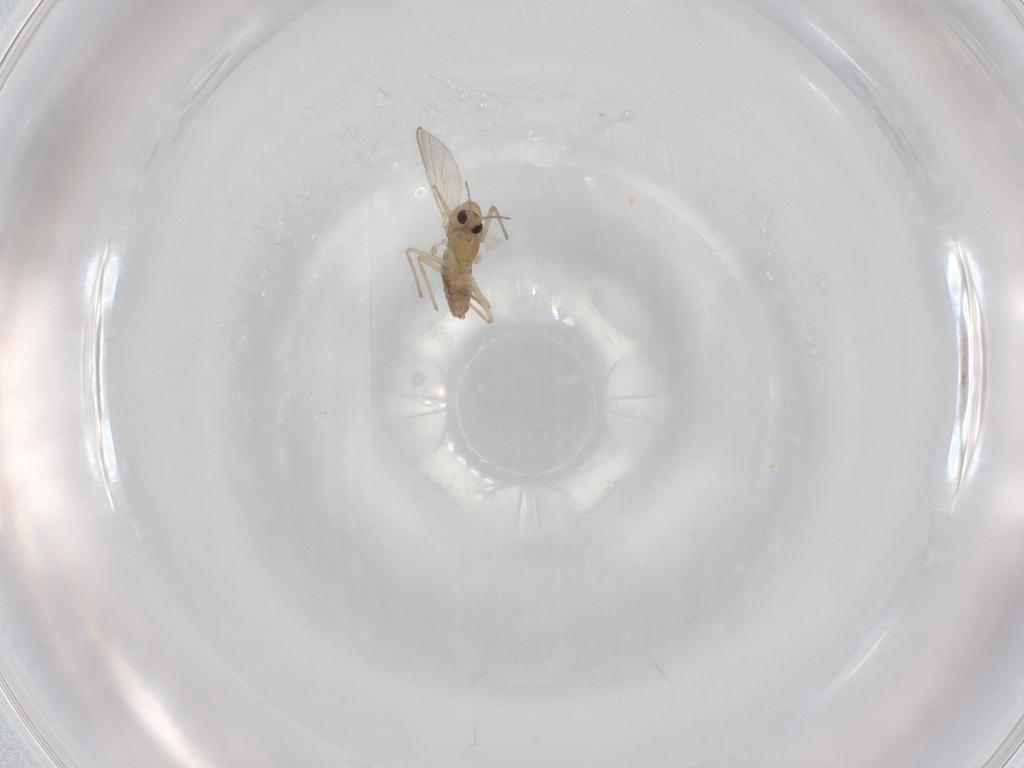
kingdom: Animalia
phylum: Arthropoda
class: Insecta
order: Diptera
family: Chironomidae
